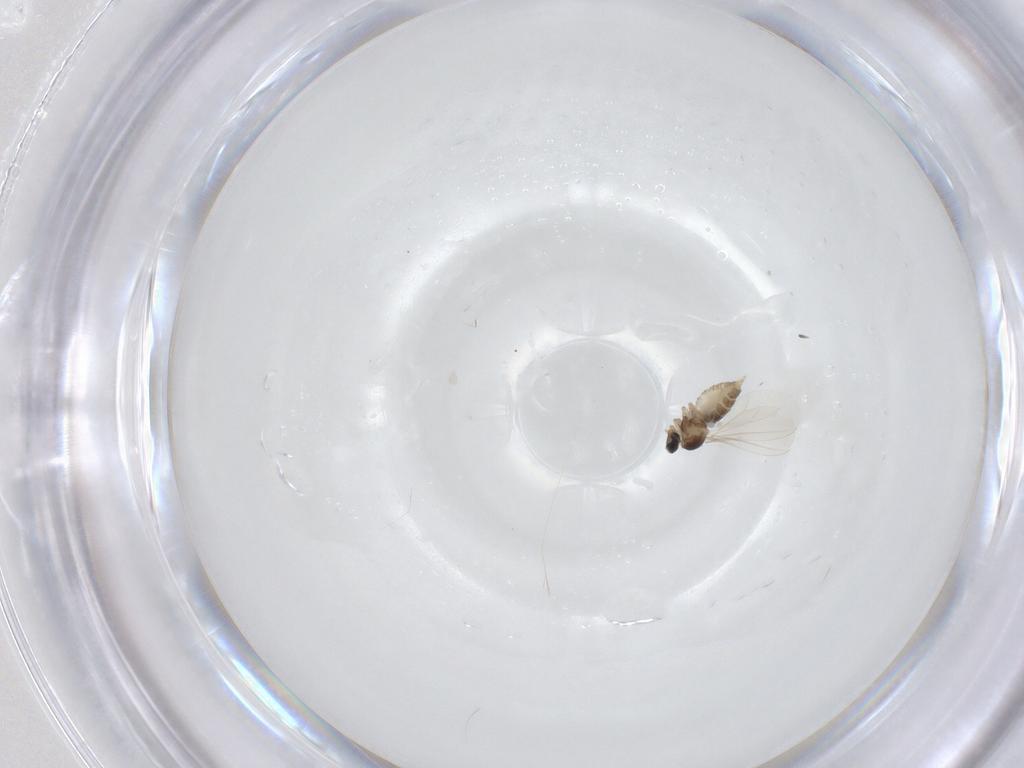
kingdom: Animalia
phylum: Arthropoda
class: Insecta
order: Diptera
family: Cecidomyiidae
